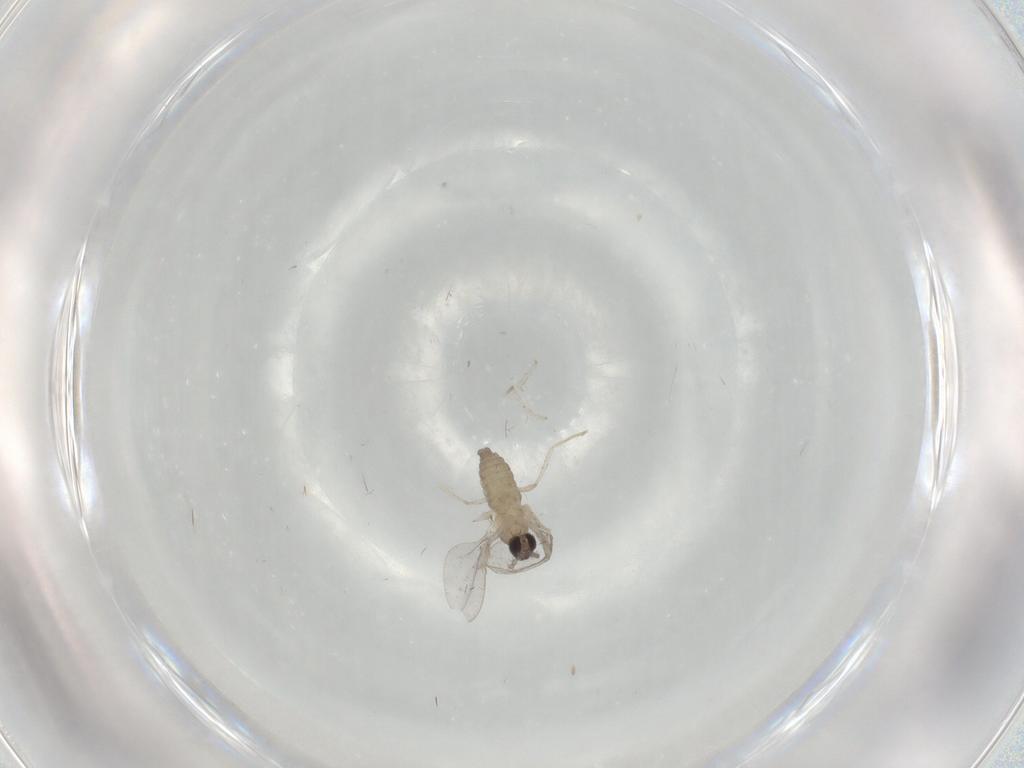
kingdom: Animalia
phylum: Arthropoda
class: Insecta
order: Diptera
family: Cecidomyiidae
